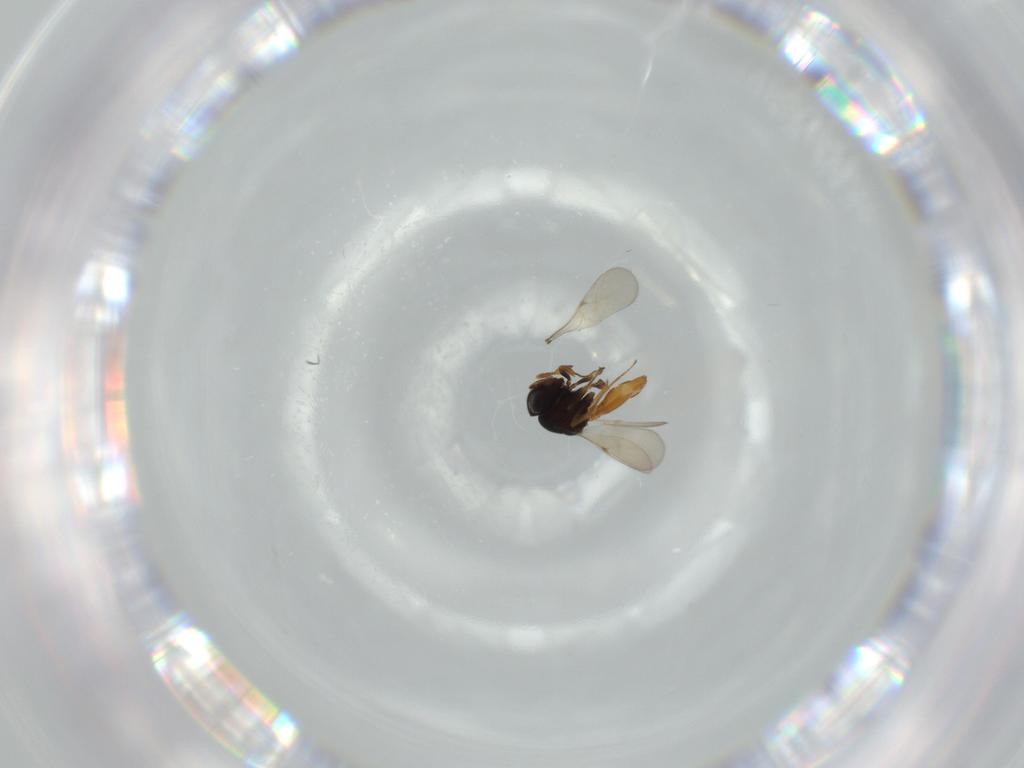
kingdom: Animalia
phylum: Arthropoda
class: Insecta
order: Hymenoptera
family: Scelionidae
